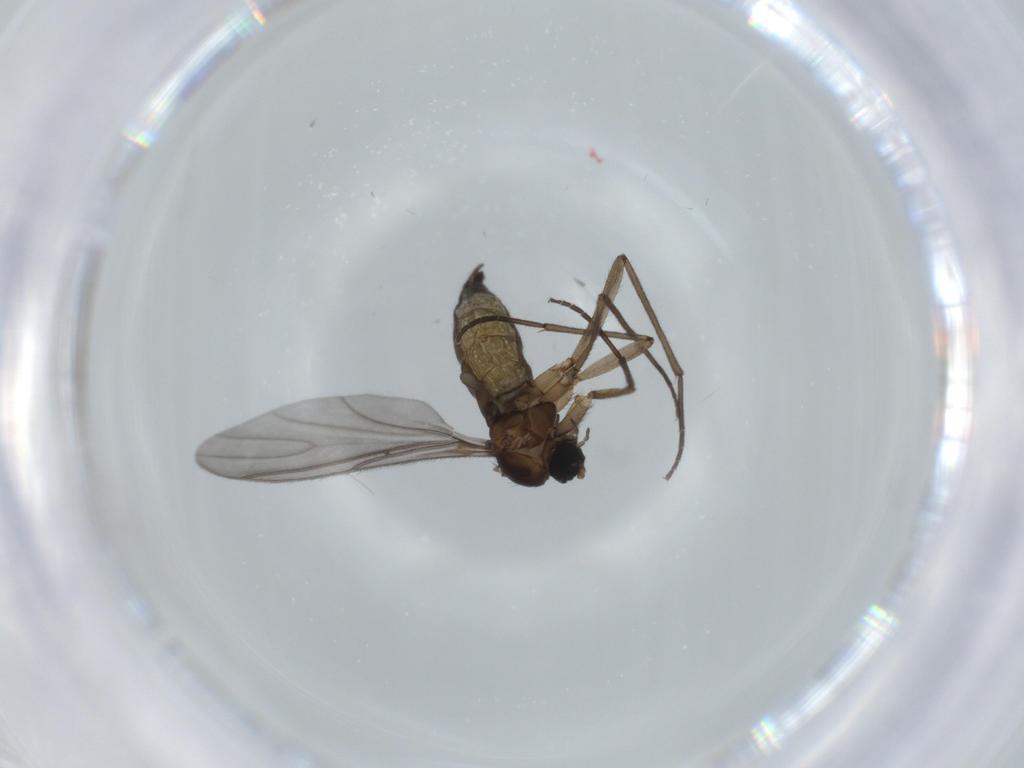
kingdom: Animalia
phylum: Arthropoda
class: Insecta
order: Diptera
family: Sciaridae
